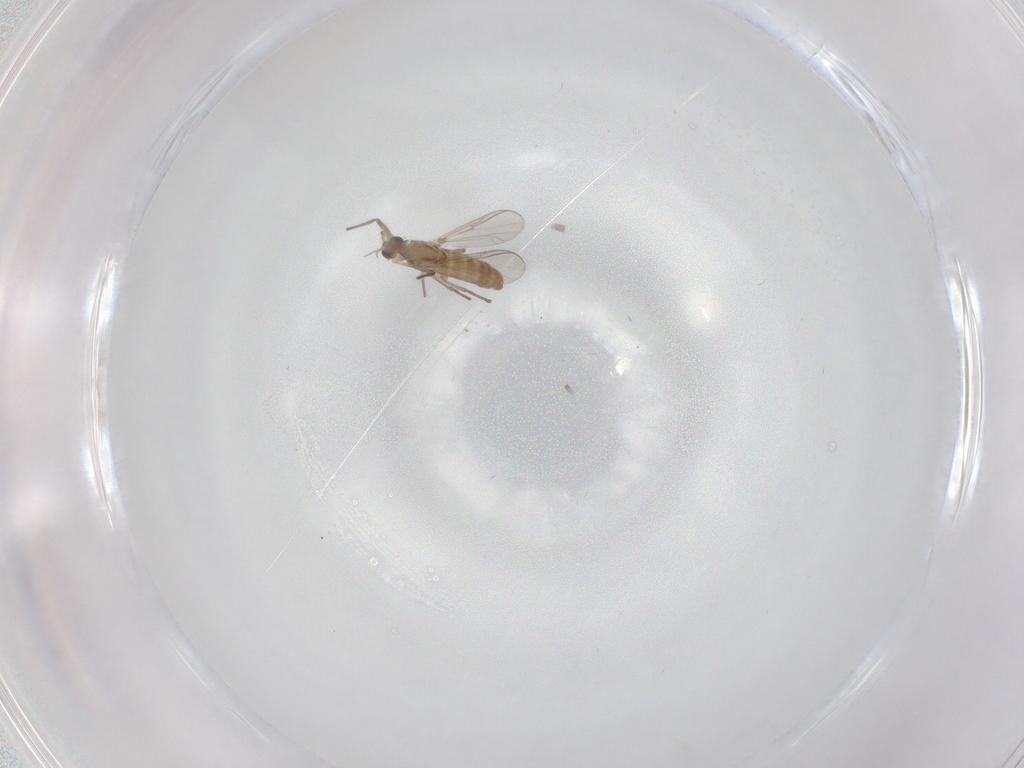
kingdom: Animalia
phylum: Arthropoda
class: Insecta
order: Diptera
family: Chironomidae
